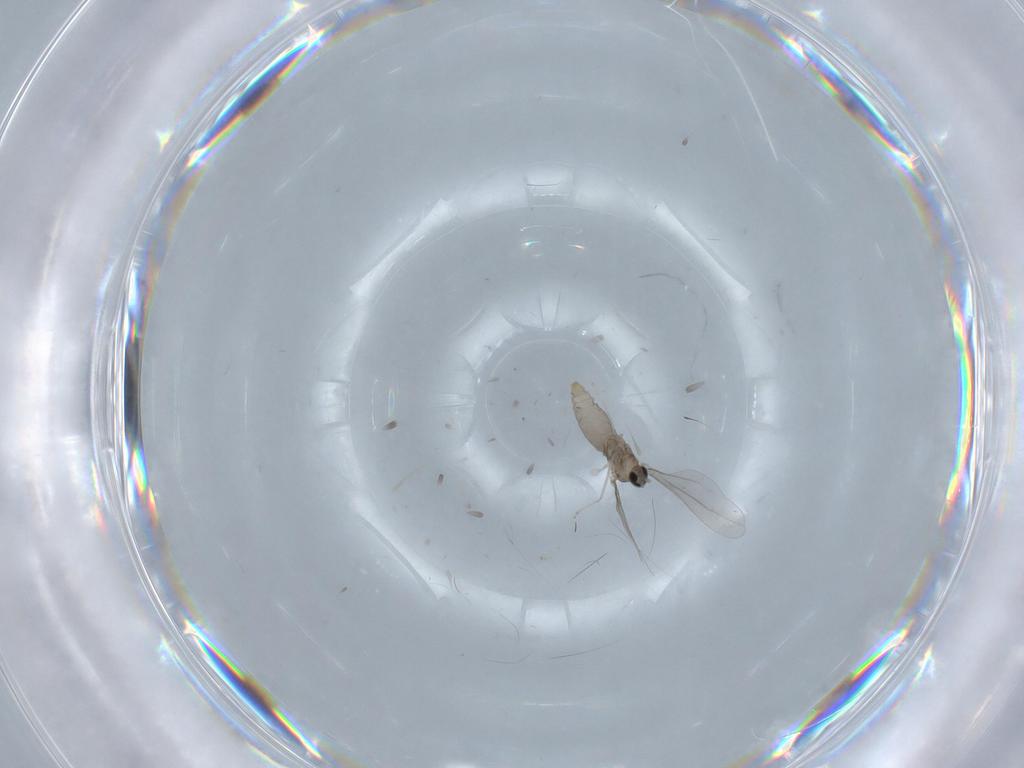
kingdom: Animalia
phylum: Arthropoda
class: Insecta
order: Diptera
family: Cecidomyiidae
